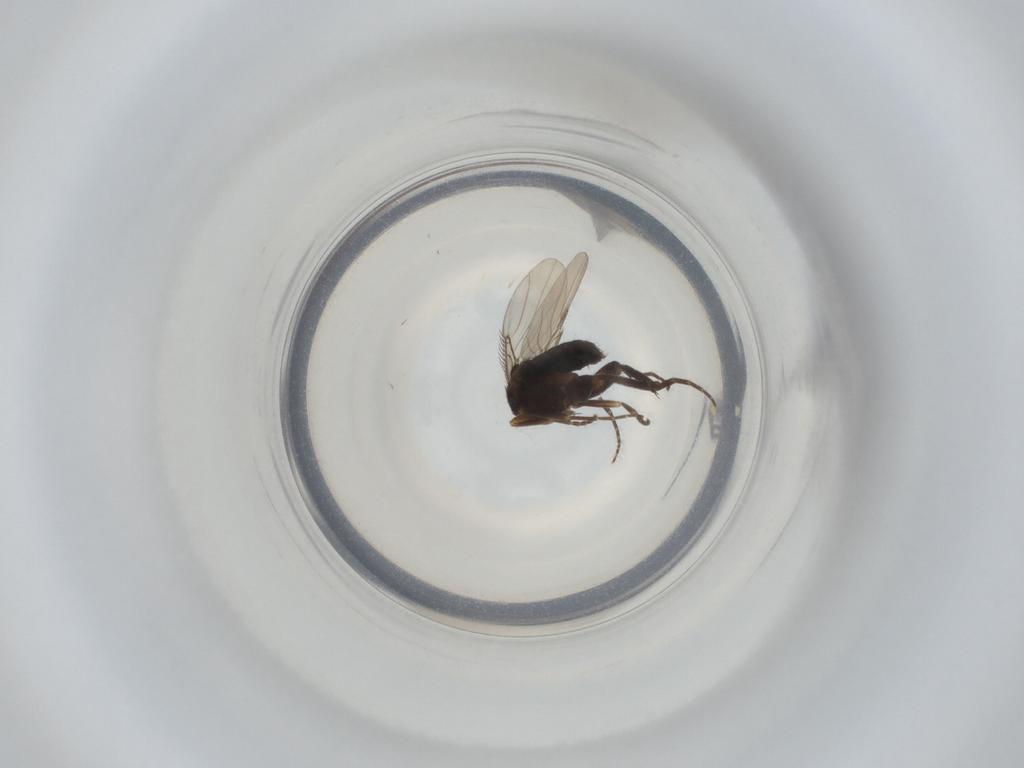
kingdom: Animalia
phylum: Arthropoda
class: Insecta
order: Diptera
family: Phoridae
